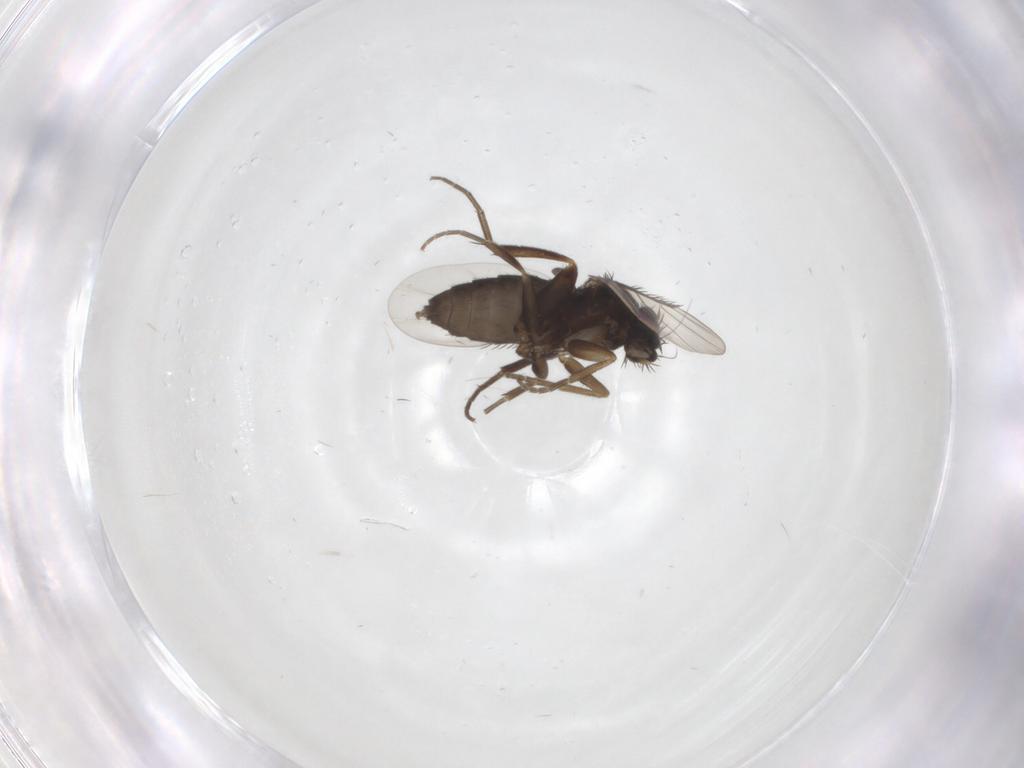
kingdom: Animalia
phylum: Arthropoda
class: Insecta
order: Diptera
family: Phoridae
